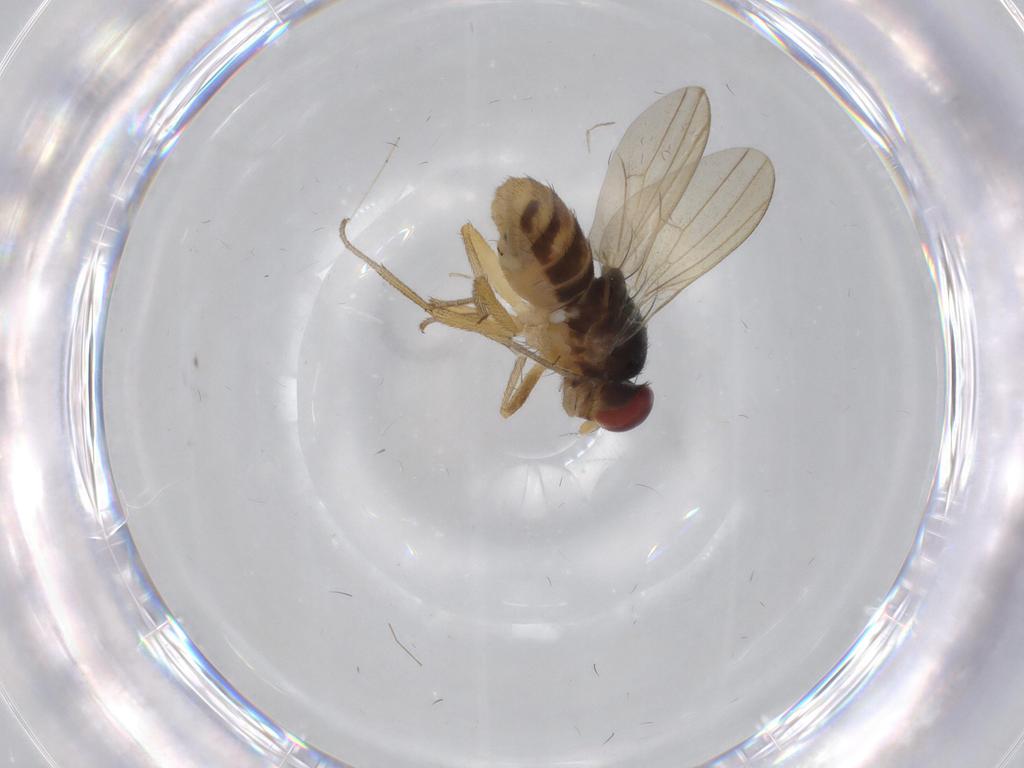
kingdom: Animalia
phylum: Arthropoda
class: Insecta
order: Diptera
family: Lauxaniidae
